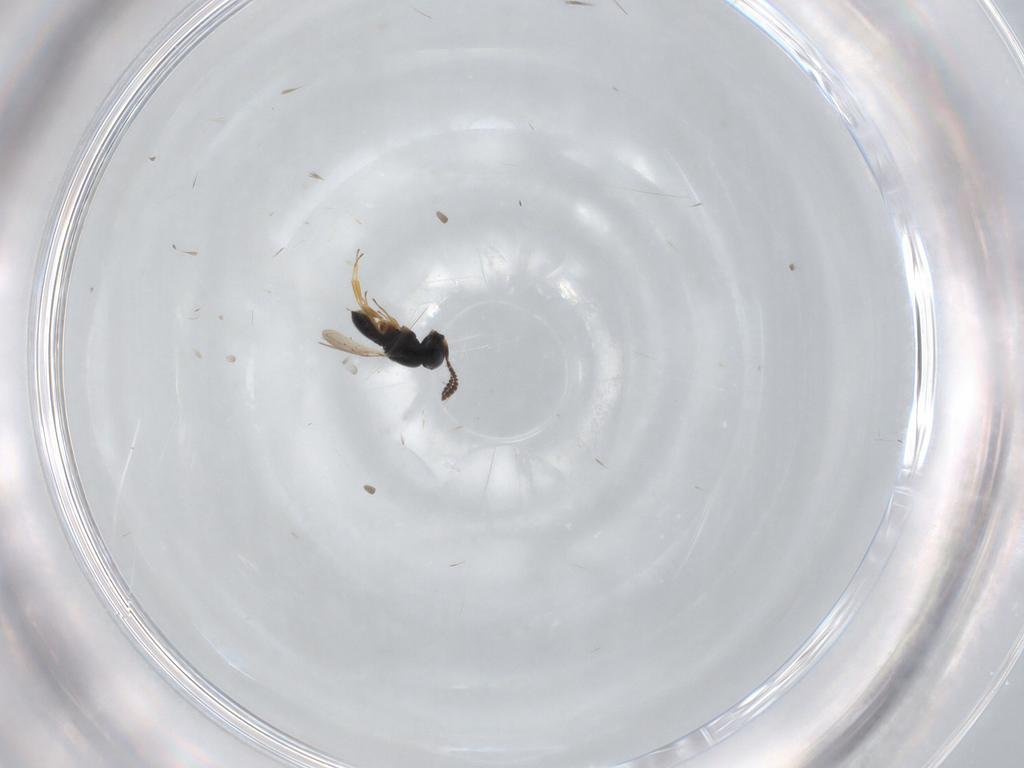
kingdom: Animalia
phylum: Arthropoda
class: Insecta
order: Hymenoptera
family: Scelionidae
